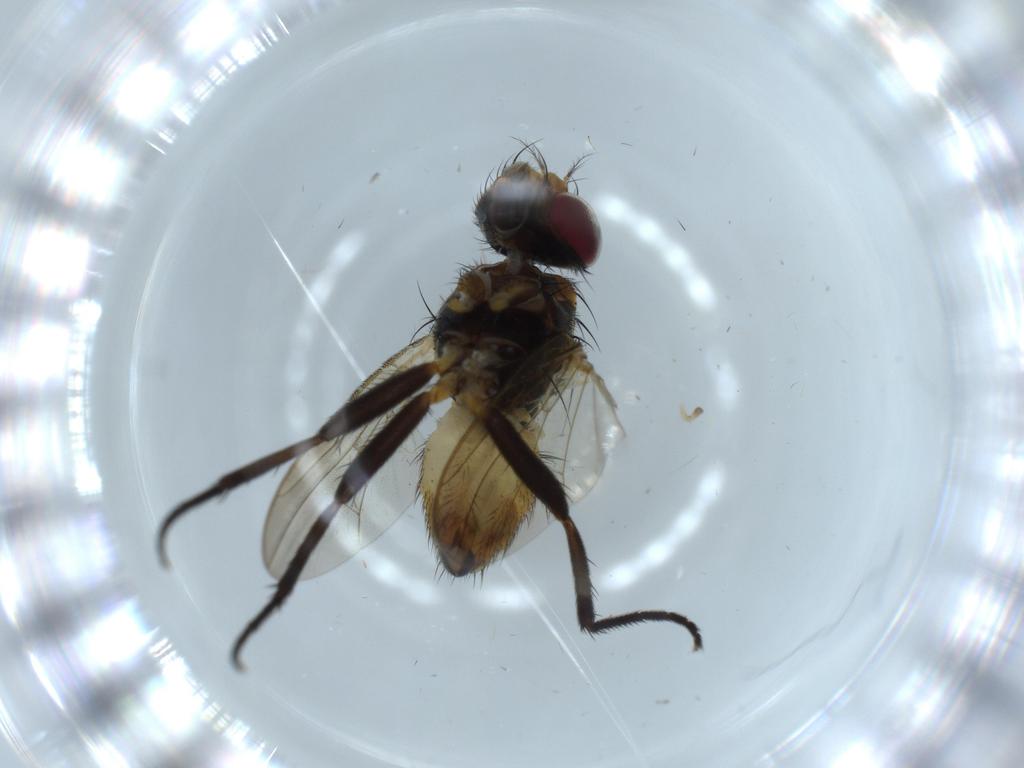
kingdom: Animalia
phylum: Arthropoda
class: Insecta
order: Diptera
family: Anthomyiidae
